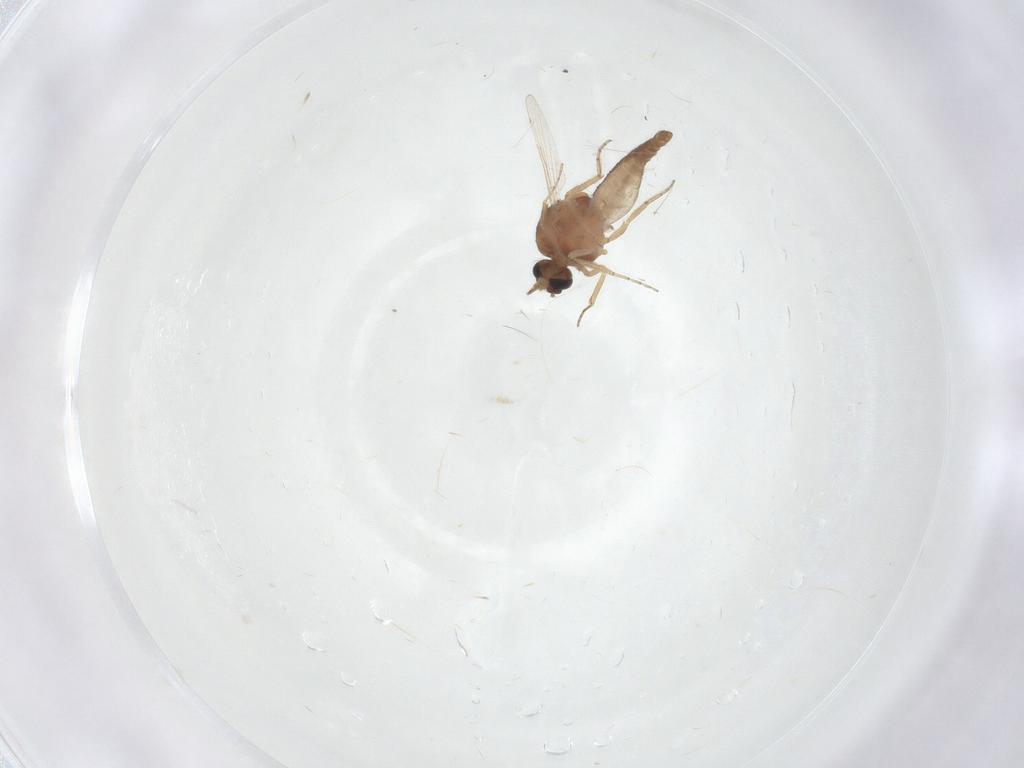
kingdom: Animalia
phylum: Arthropoda
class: Insecta
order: Diptera
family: Ceratopogonidae
